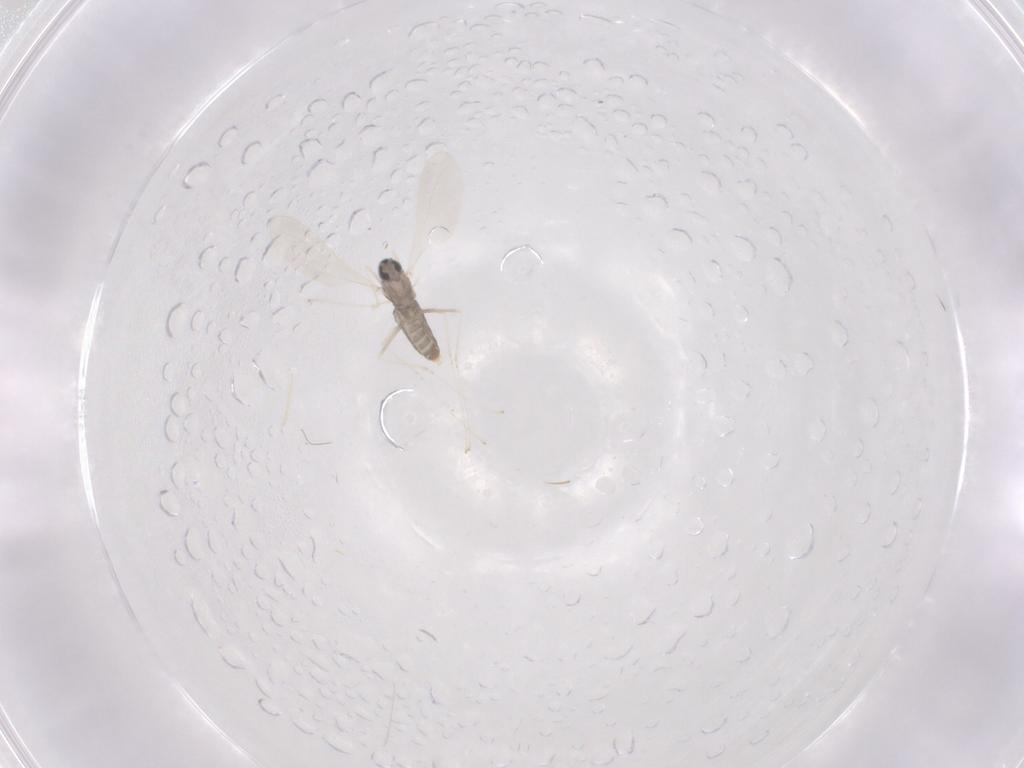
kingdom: Animalia
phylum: Arthropoda
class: Insecta
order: Diptera
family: Cecidomyiidae
